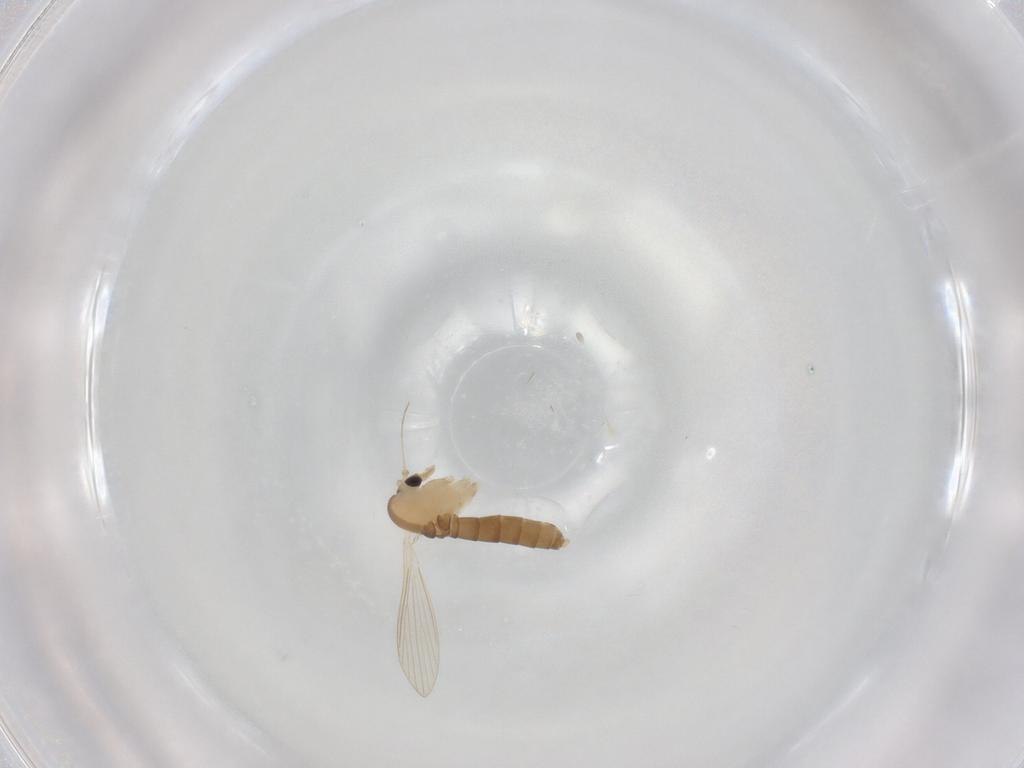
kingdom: Animalia
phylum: Arthropoda
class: Insecta
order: Diptera
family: Psychodidae
